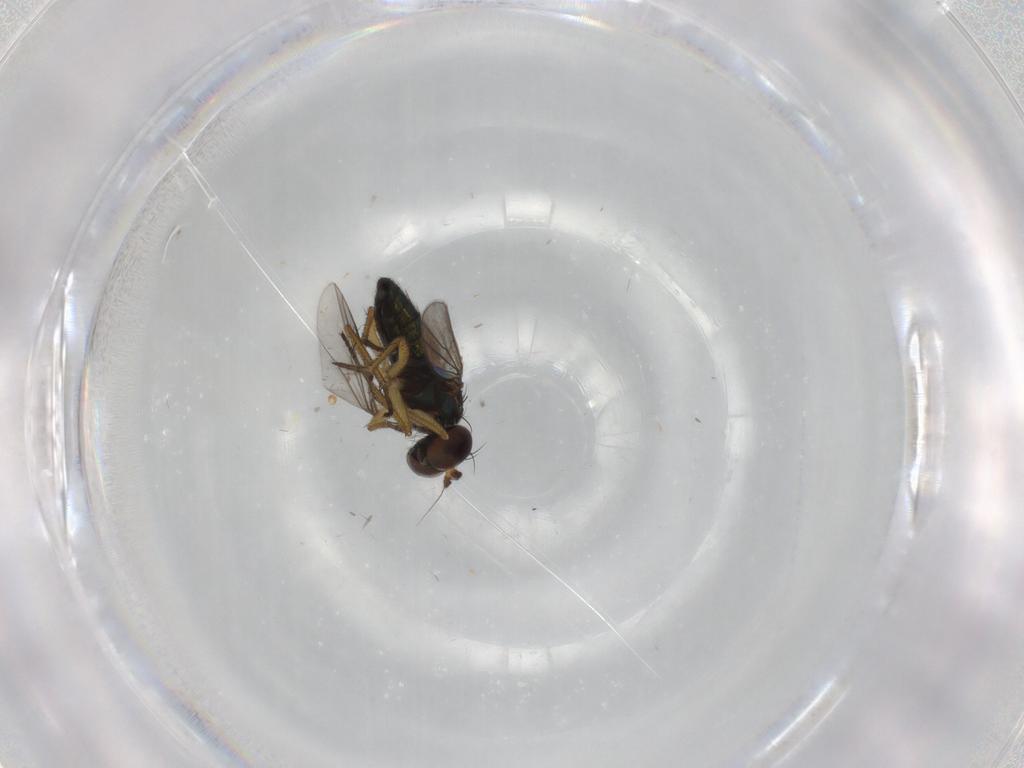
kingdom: Animalia
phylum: Arthropoda
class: Insecta
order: Diptera
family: Dolichopodidae
